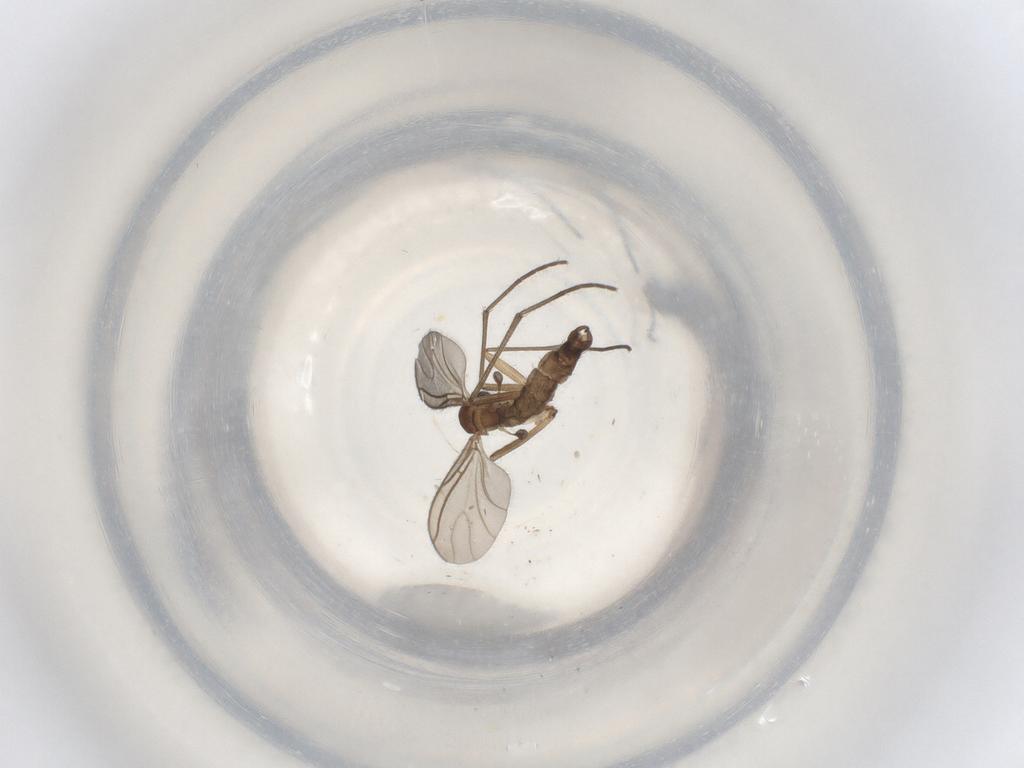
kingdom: Animalia
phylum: Arthropoda
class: Insecta
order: Diptera
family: Sciaridae
